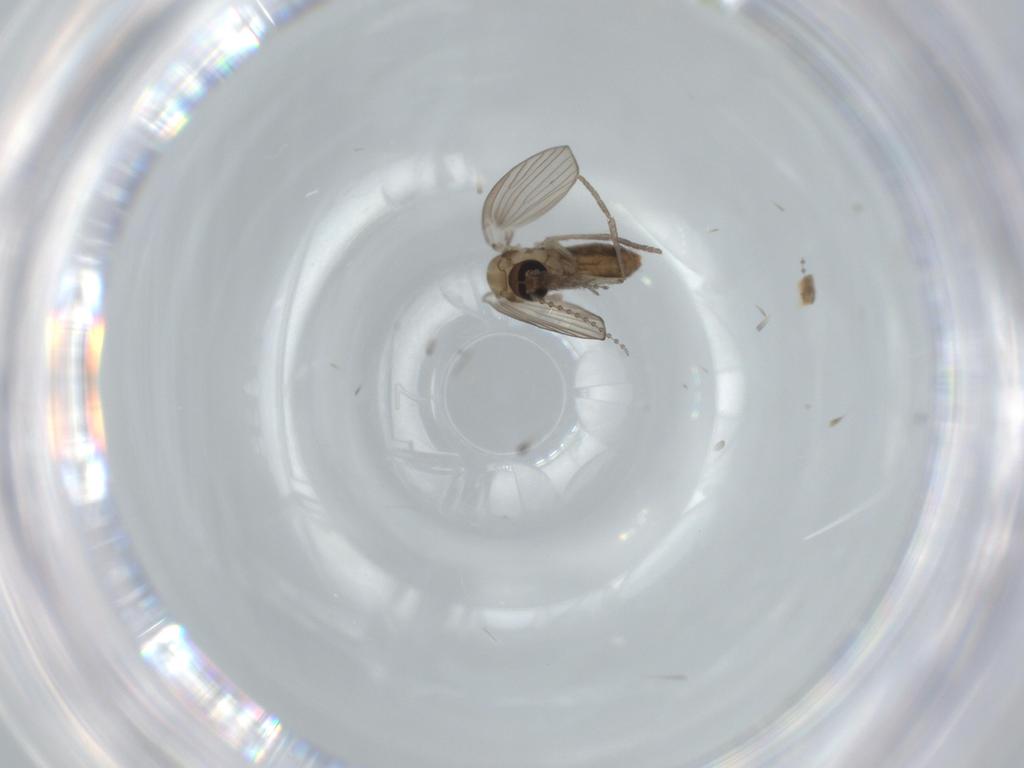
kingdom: Animalia
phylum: Arthropoda
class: Insecta
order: Diptera
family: Psychodidae
